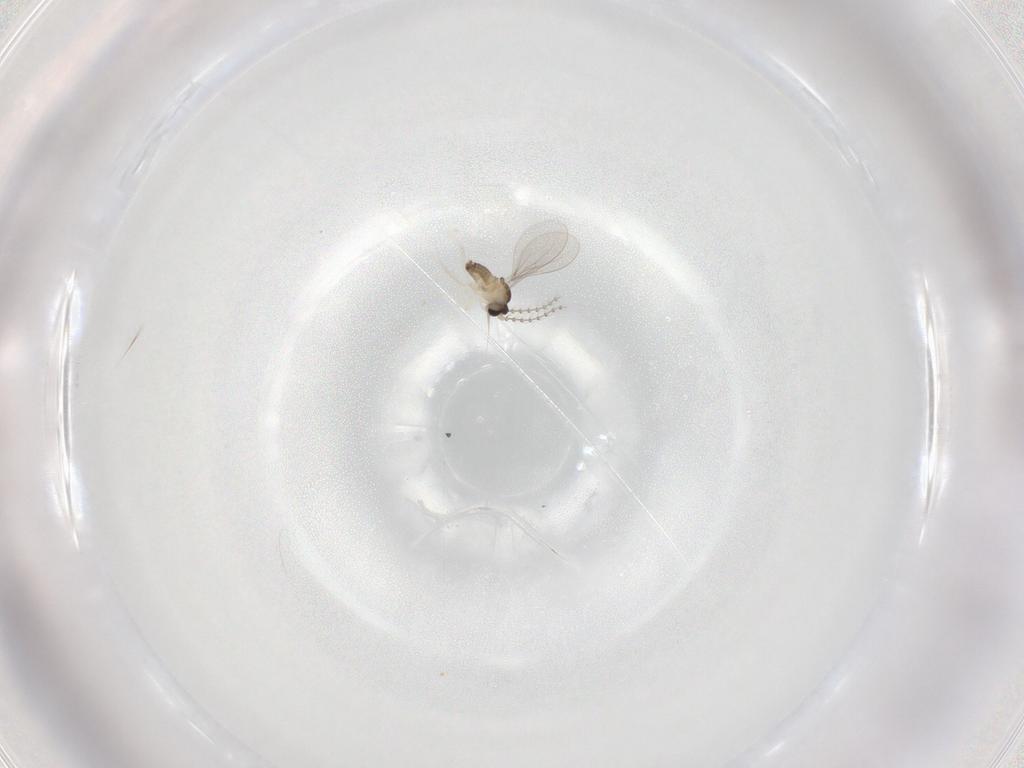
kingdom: Animalia
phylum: Arthropoda
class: Insecta
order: Diptera
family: Cecidomyiidae
